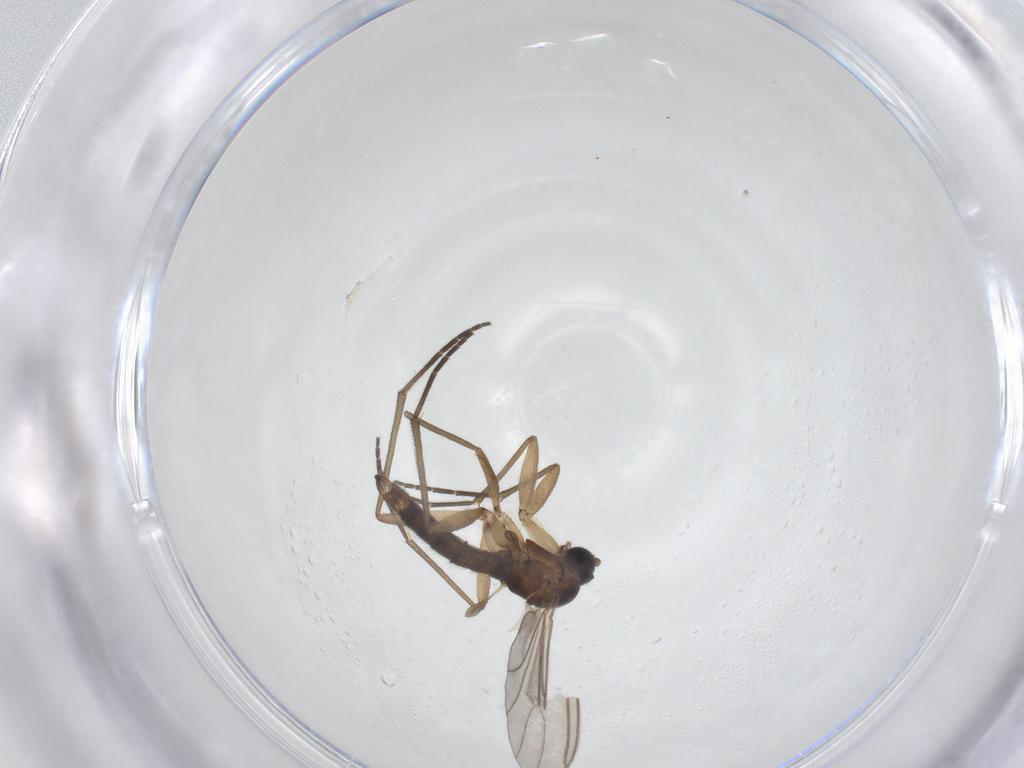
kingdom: Animalia
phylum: Arthropoda
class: Insecta
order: Diptera
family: Sciaridae
